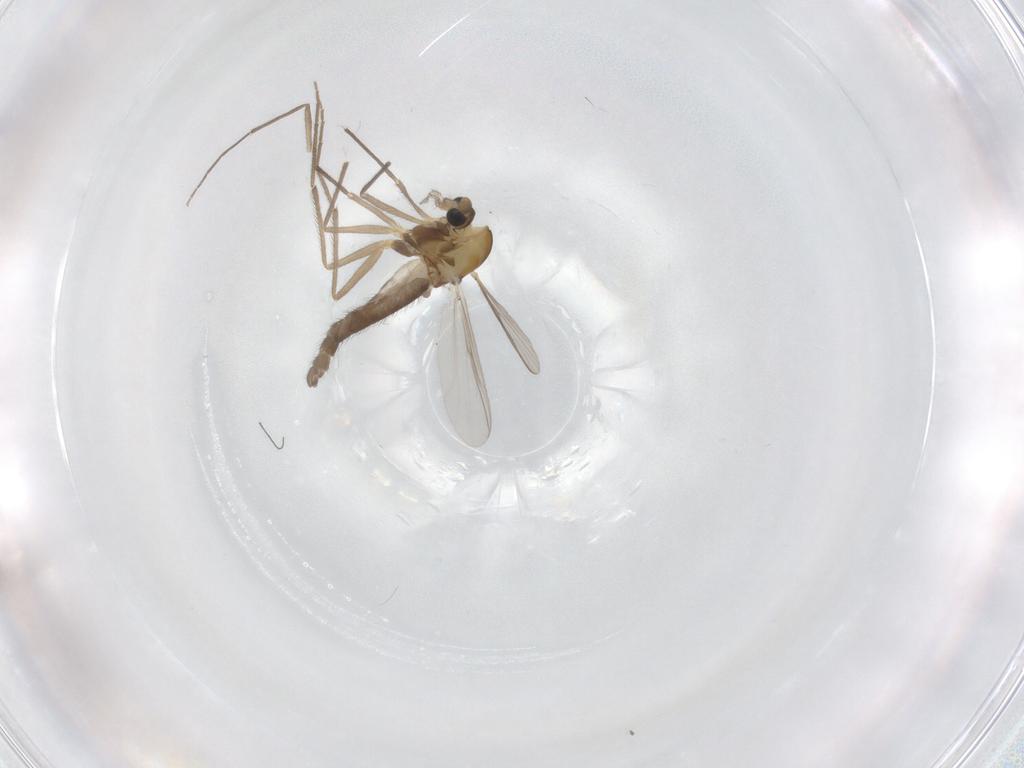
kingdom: Animalia
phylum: Arthropoda
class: Insecta
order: Diptera
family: Chironomidae
